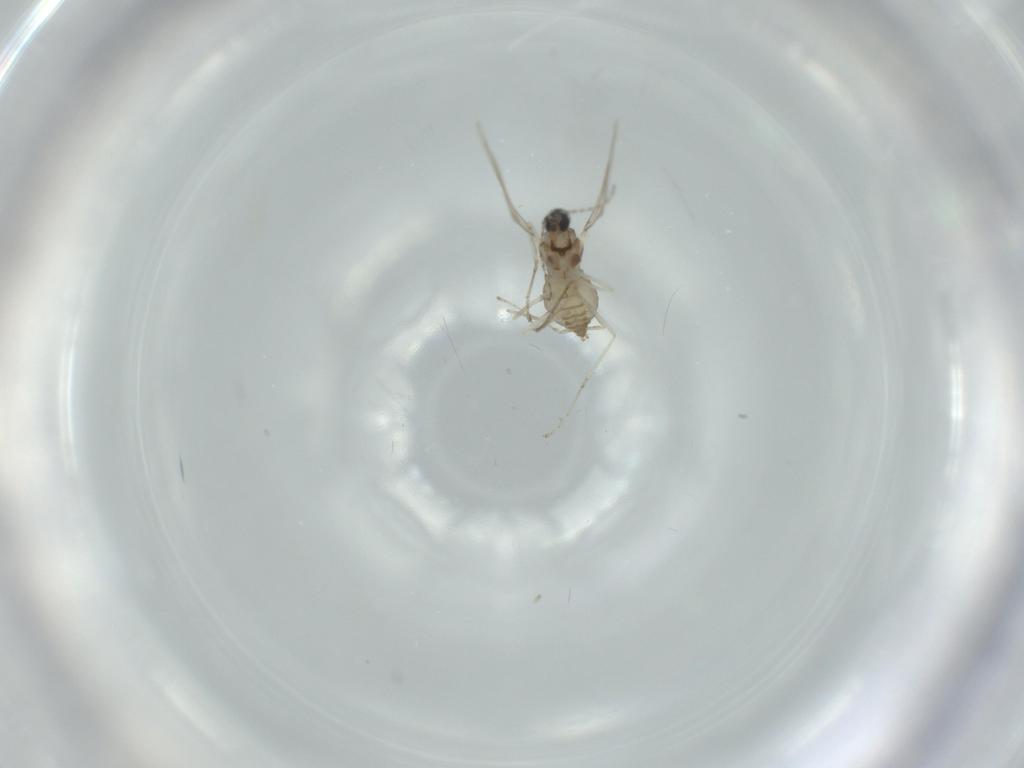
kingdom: Animalia
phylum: Arthropoda
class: Insecta
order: Diptera
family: Cecidomyiidae
